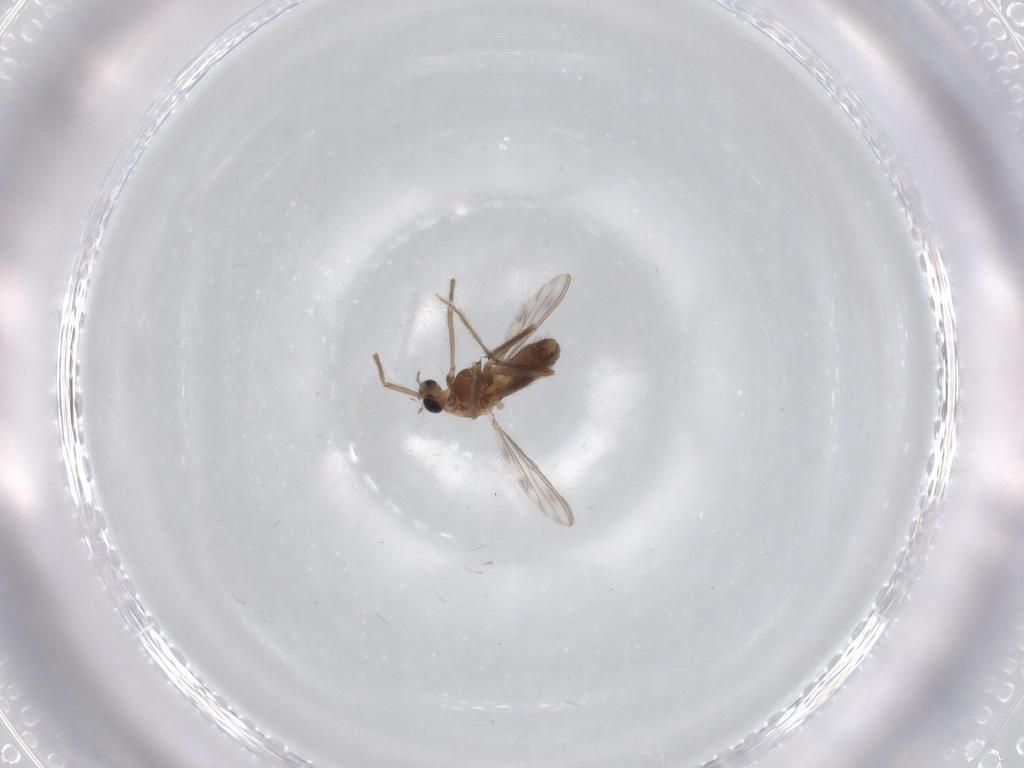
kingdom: Animalia
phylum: Arthropoda
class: Insecta
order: Diptera
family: Chironomidae
